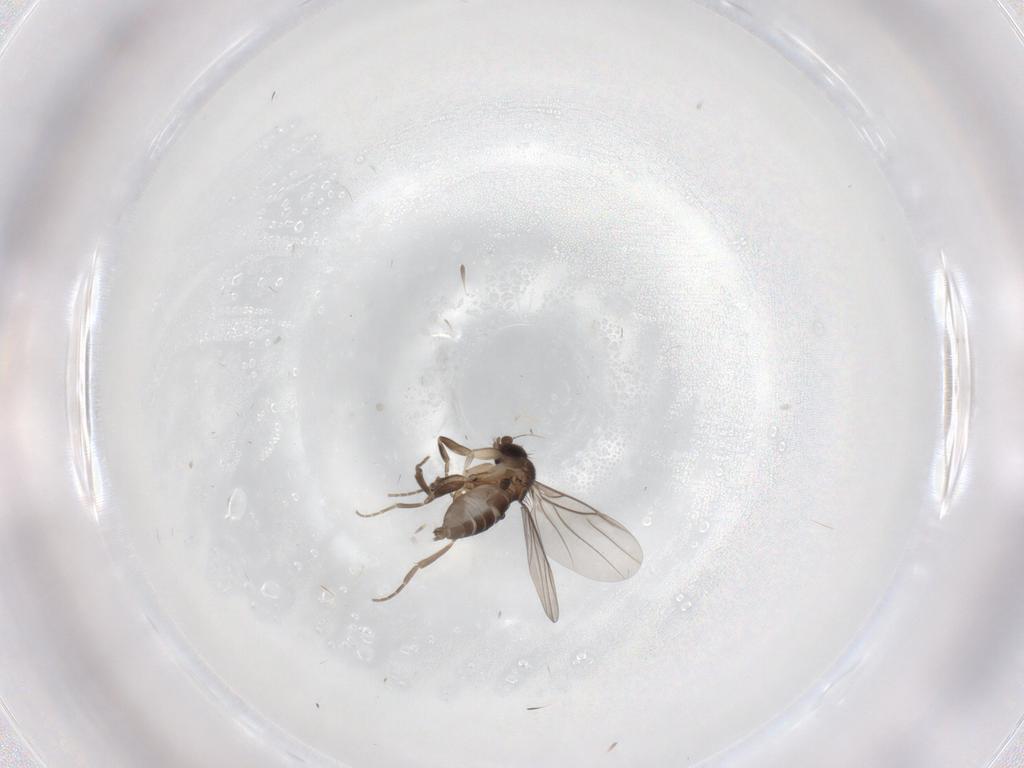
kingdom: Animalia
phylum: Arthropoda
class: Insecta
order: Diptera
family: Phoridae
